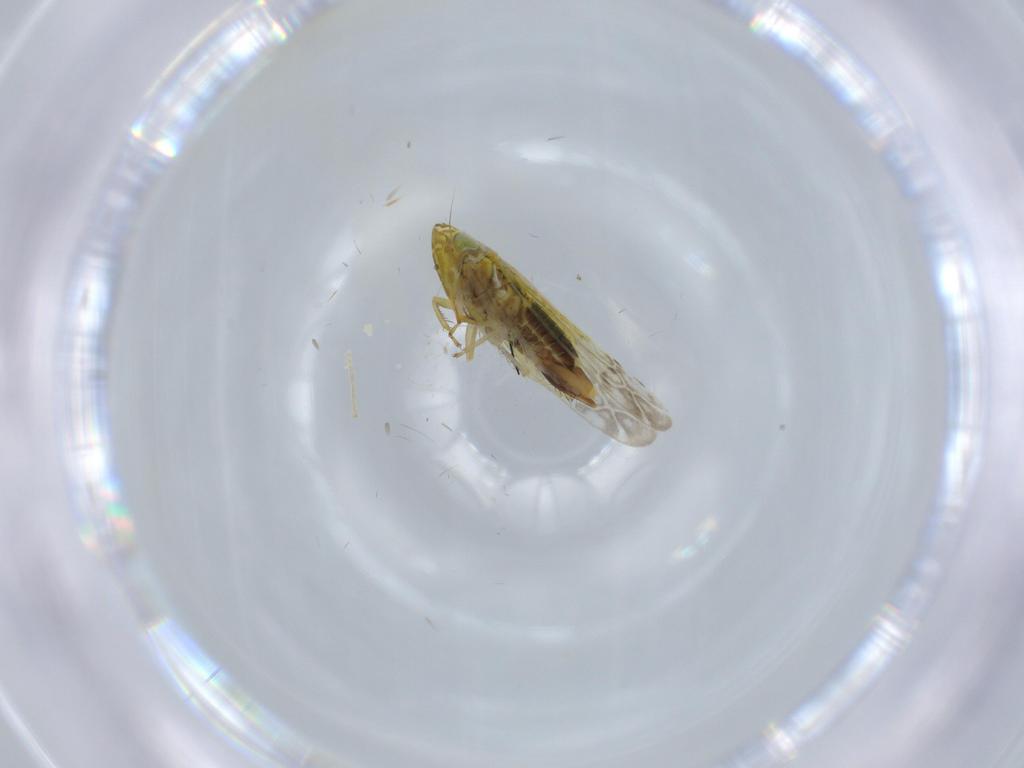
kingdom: Animalia
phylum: Arthropoda
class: Insecta
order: Hemiptera
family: Cicadellidae
